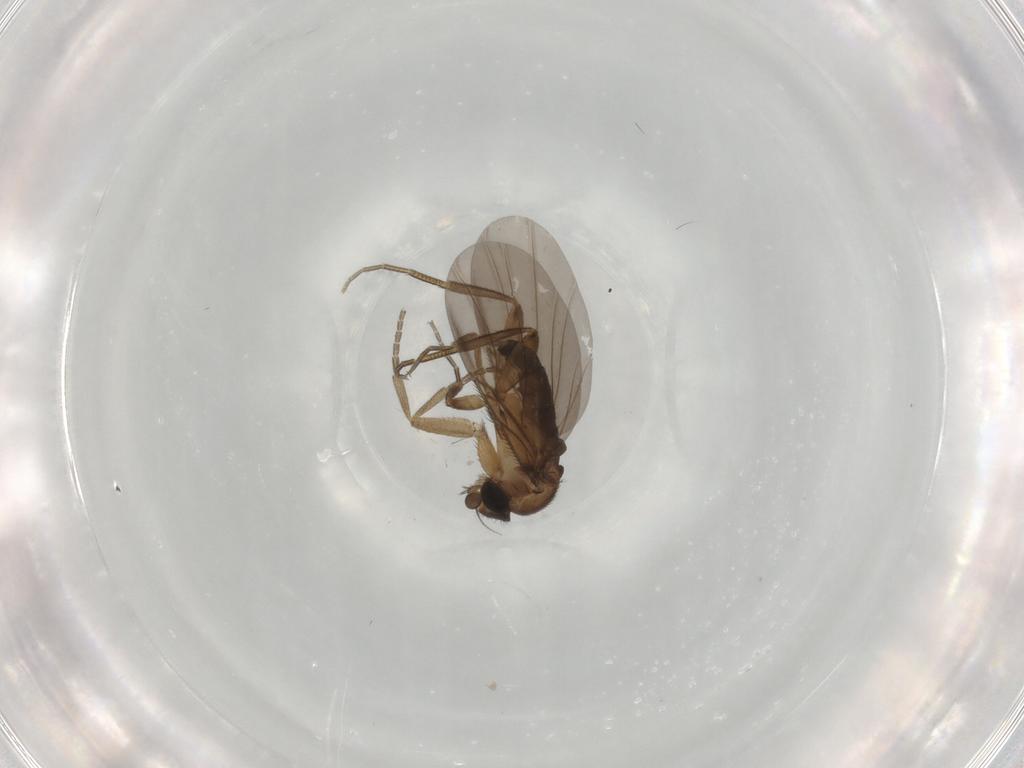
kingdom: Animalia
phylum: Arthropoda
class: Insecta
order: Diptera
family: Phoridae
